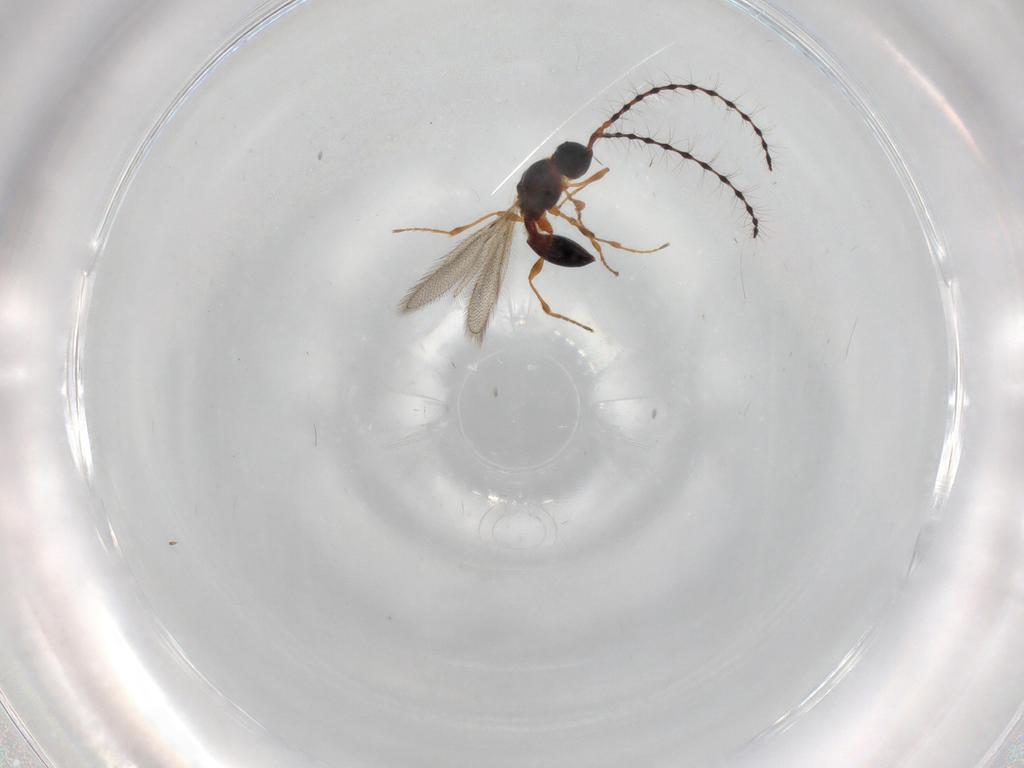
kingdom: Animalia
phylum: Arthropoda
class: Insecta
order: Hymenoptera
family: Diapriidae
